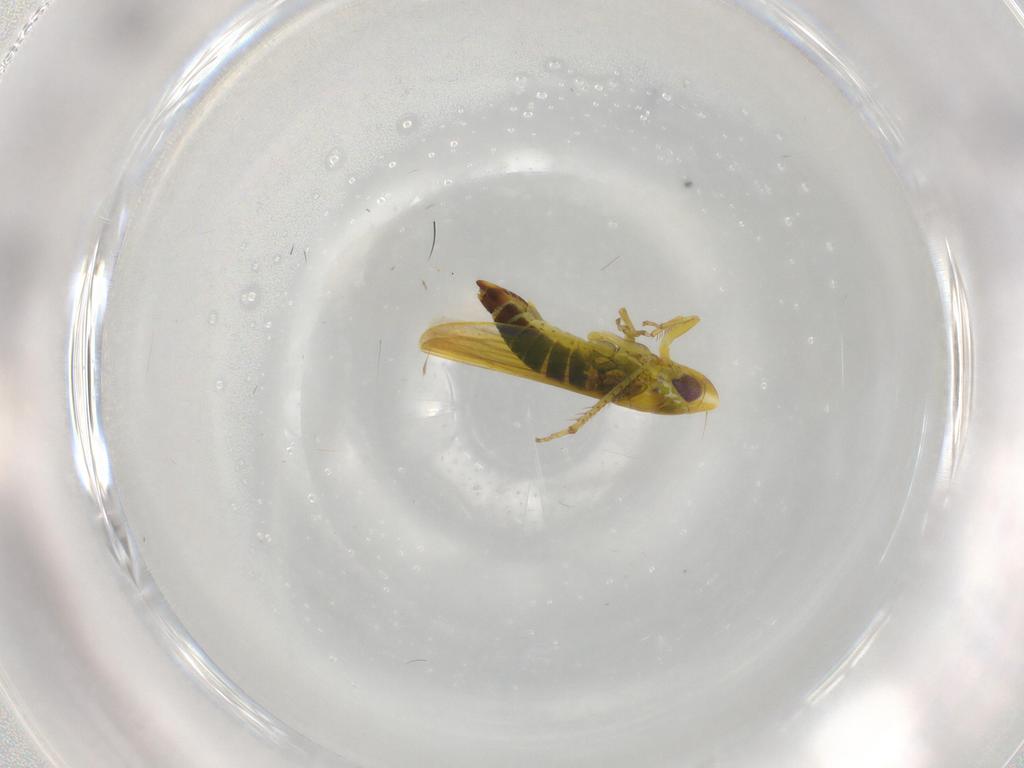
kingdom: Animalia
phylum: Arthropoda
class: Insecta
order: Hemiptera
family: Cicadellidae
